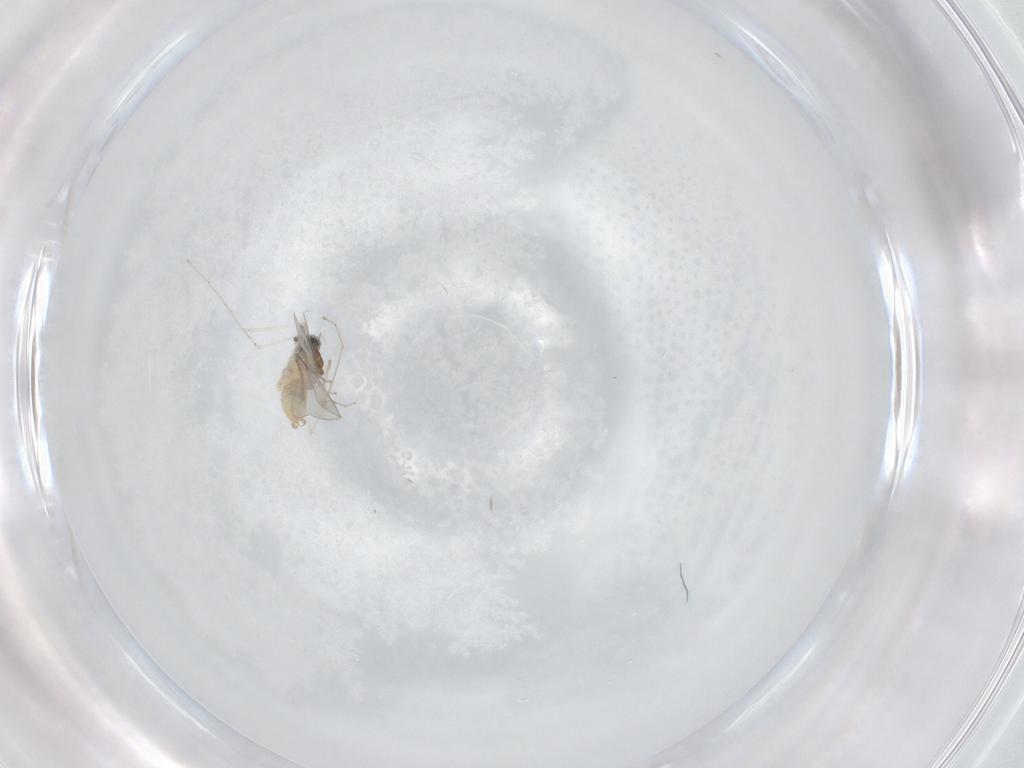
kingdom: Animalia
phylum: Arthropoda
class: Insecta
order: Diptera
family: Cecidomyiidae
